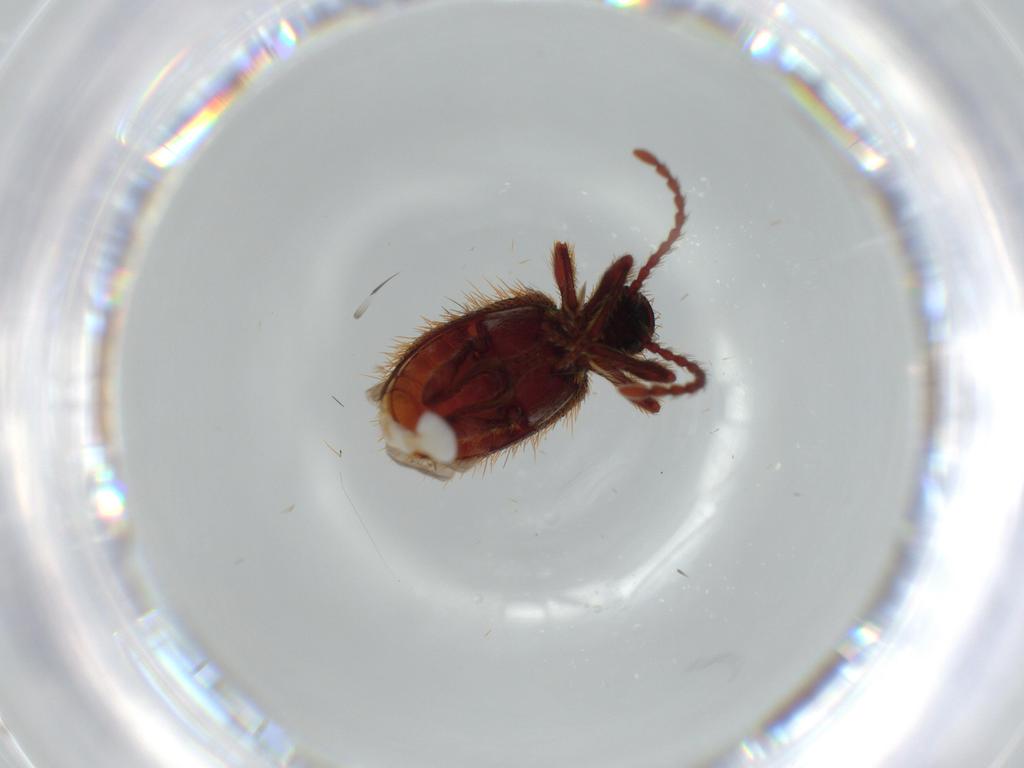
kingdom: Animalia
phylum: Arthropoda
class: Insecta
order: Coleoptera
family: Ptinidae
